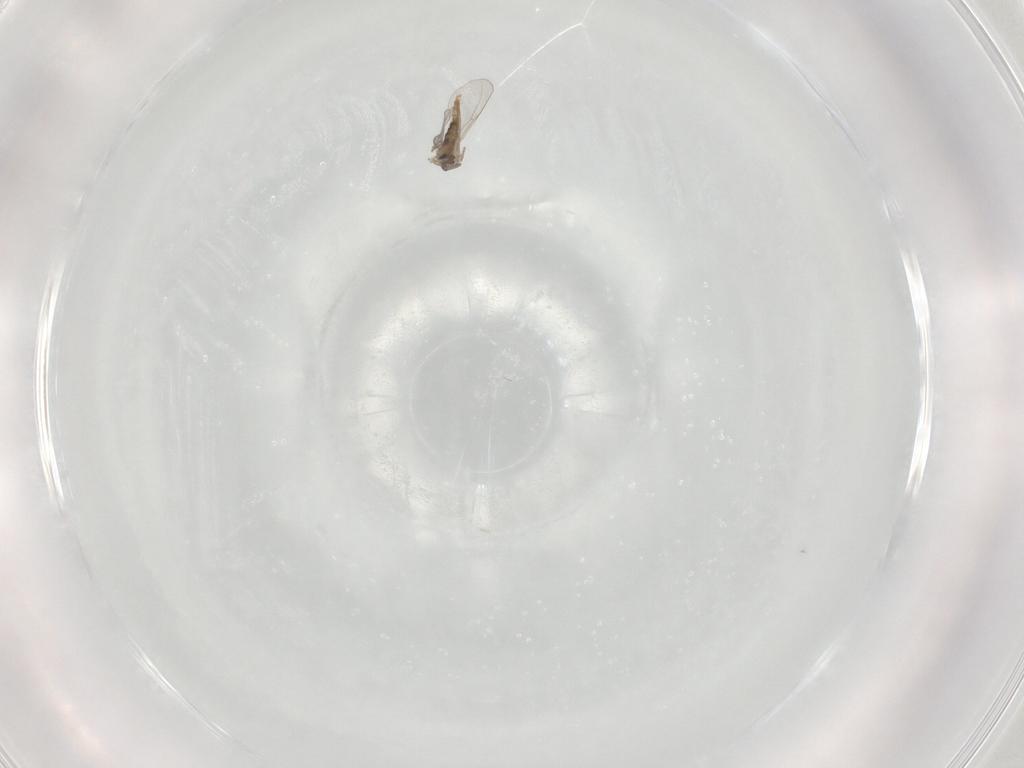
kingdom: Animalia
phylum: Arthropoda
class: Insecta
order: Diptera
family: Cecidomyiidae
